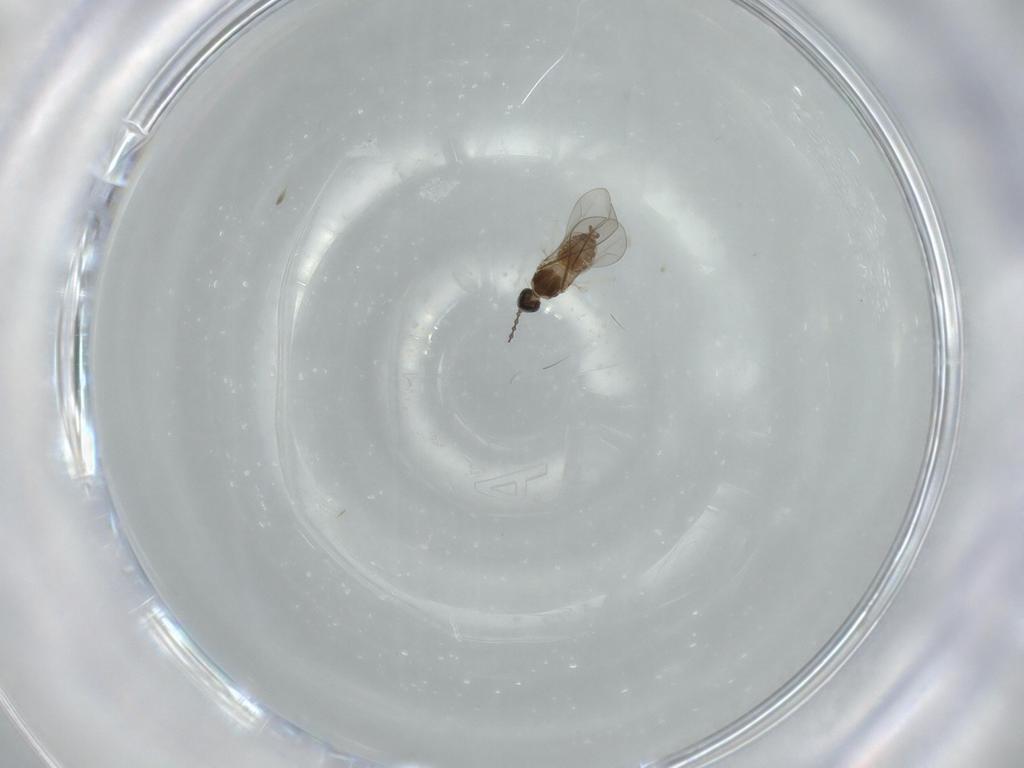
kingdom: Animalia
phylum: Arthropoda
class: Insecta
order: Diptera
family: Cecidomyiidae
